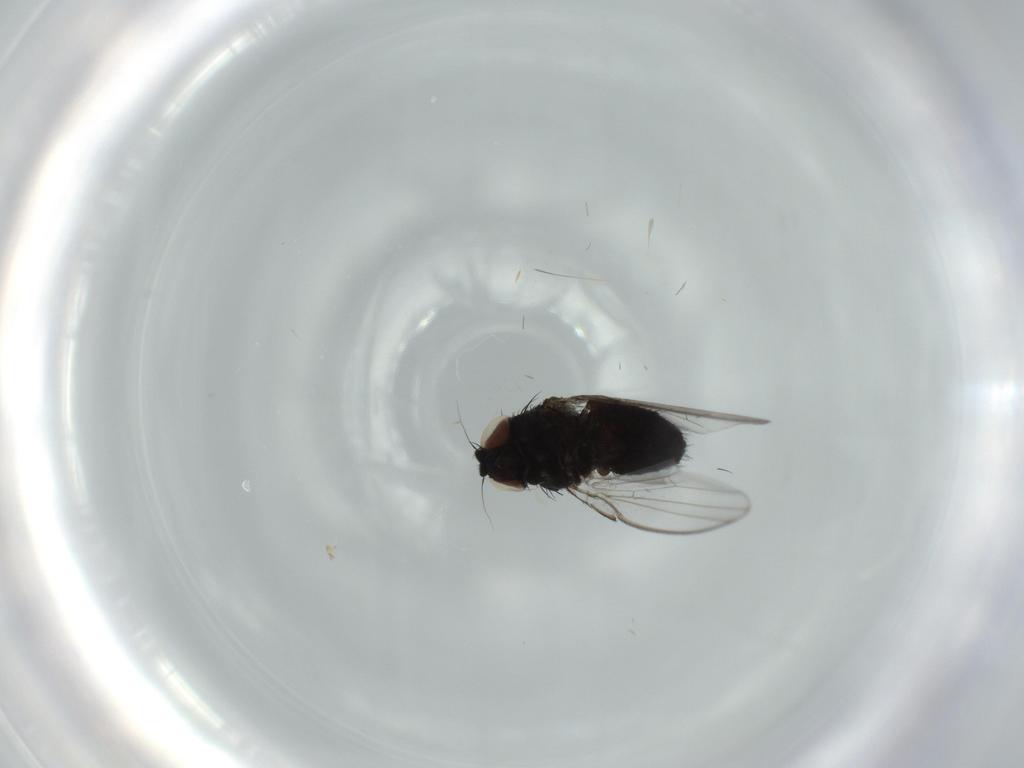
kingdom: Animalia
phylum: Arthropoda
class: Insecta
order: Diptera
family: Milichiidae
